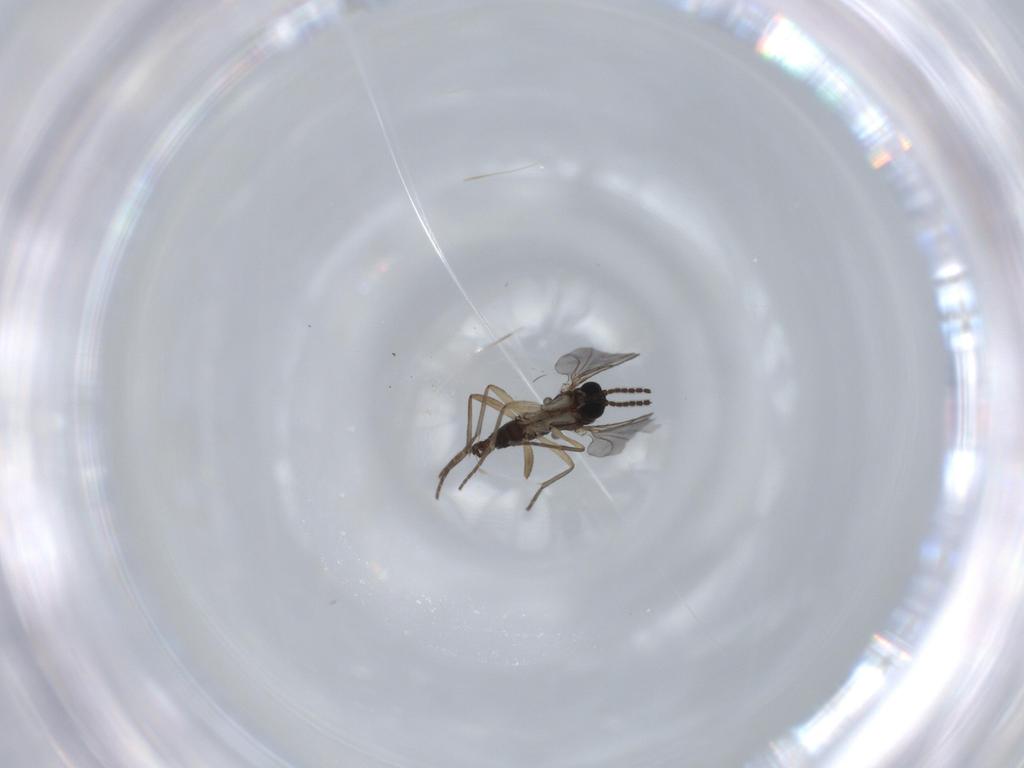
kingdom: Animalia
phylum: Arthropoda
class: Insecta
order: Diptera
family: Sciaridae
